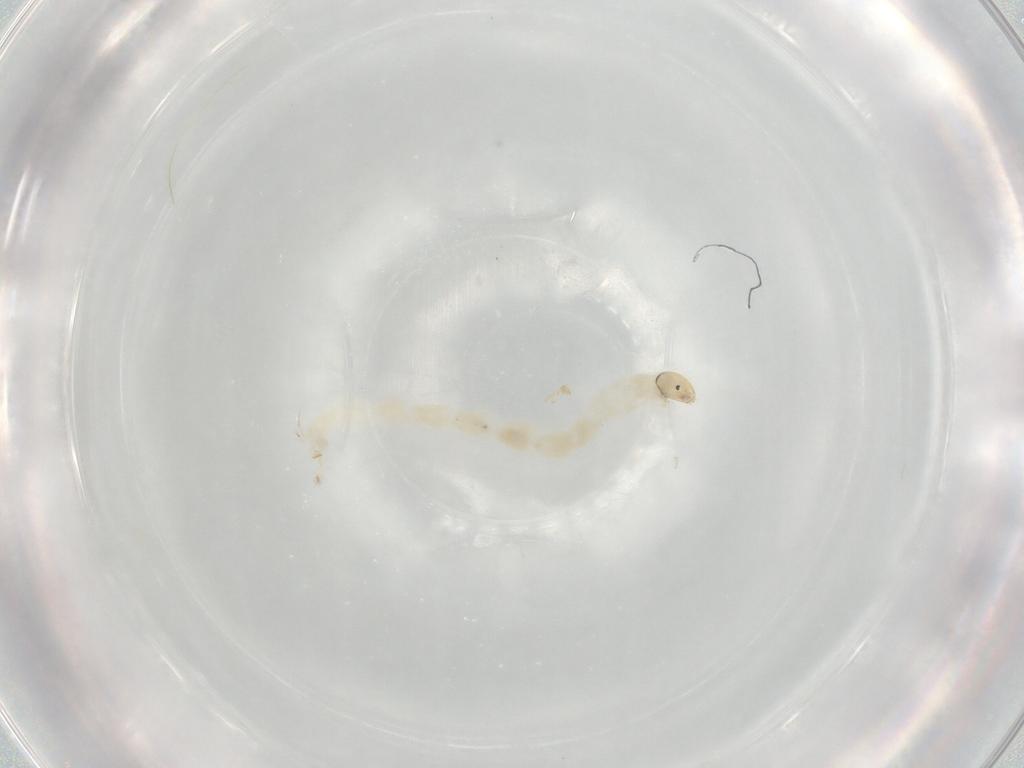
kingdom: Animalia
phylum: Arthropoda
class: Insecta
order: Diptera
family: Chironomidae
